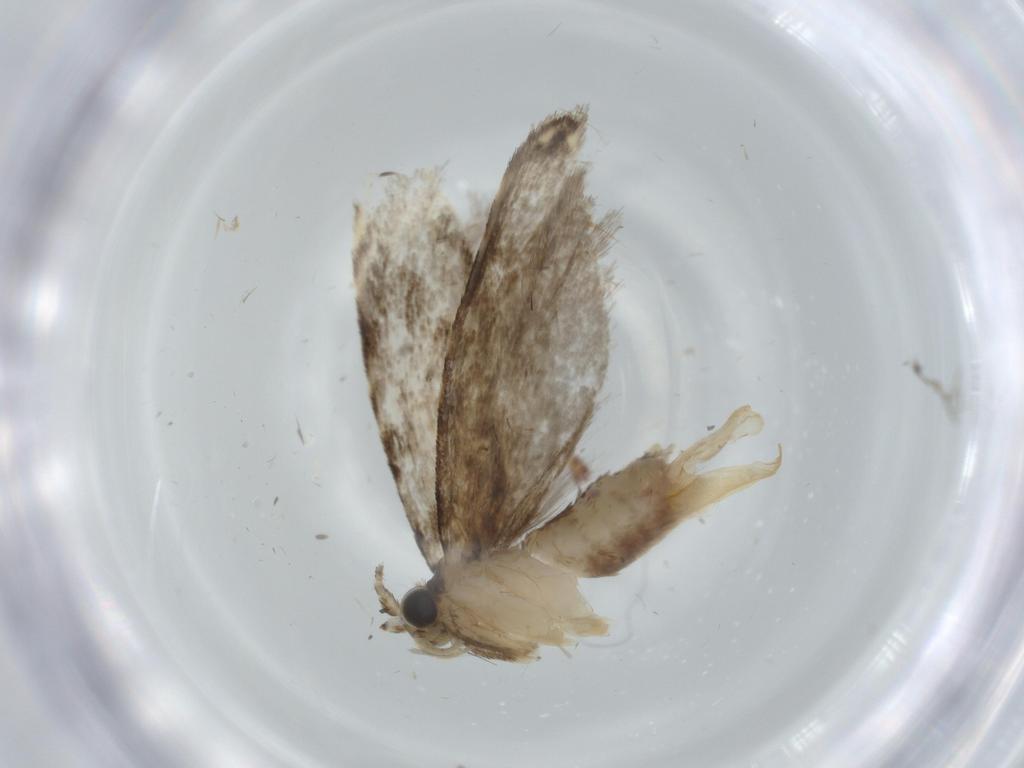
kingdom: Animalia
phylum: Arthropoda
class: Insecta
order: Lepidoptera
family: Tineidae
